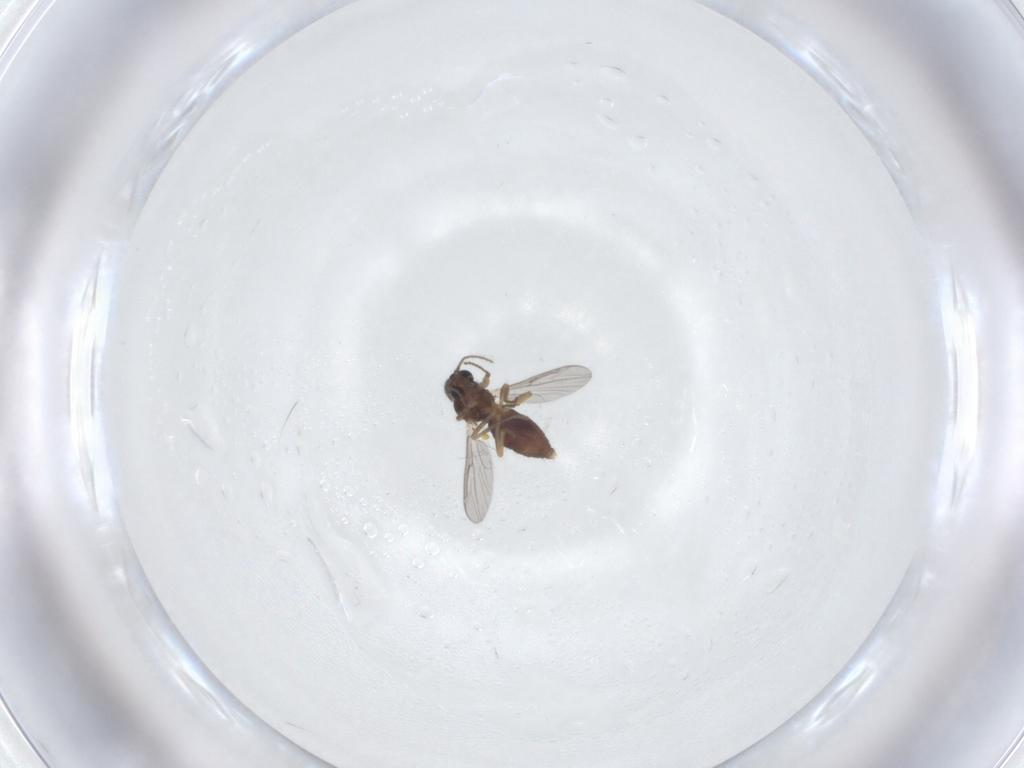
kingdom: Animalia
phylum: Arthropoda
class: Insecta
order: Diptera
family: Ceratopogonidae
